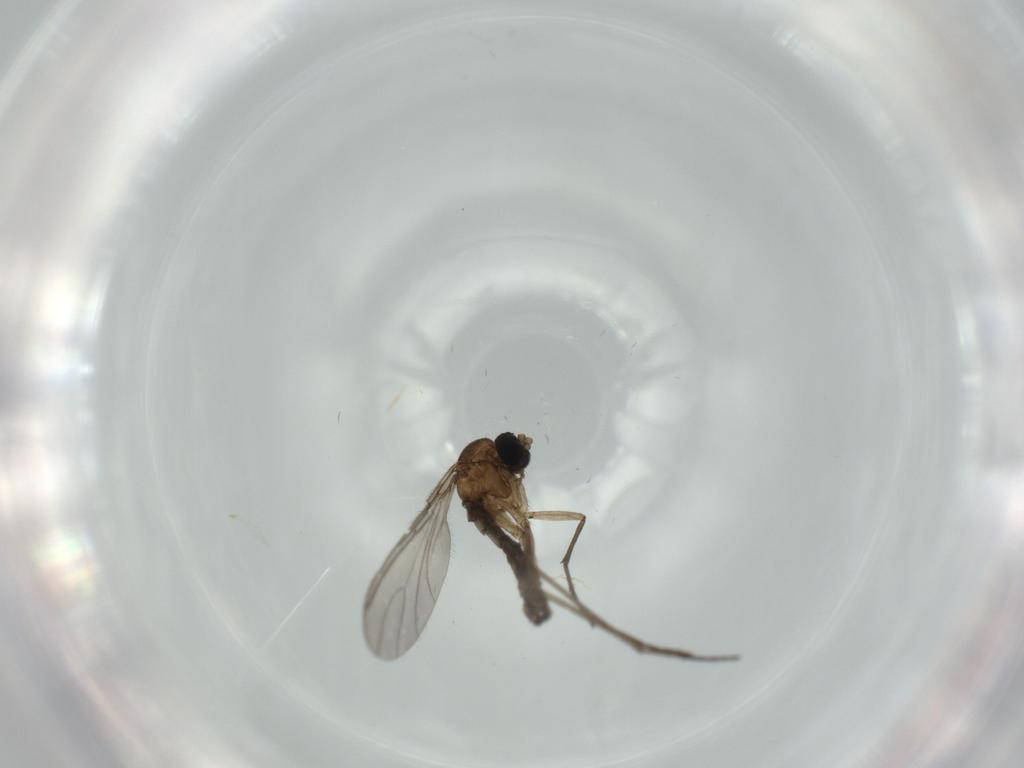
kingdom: Animalia
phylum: Arthropoda
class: Insecta
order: Diptera
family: Sciaridae
